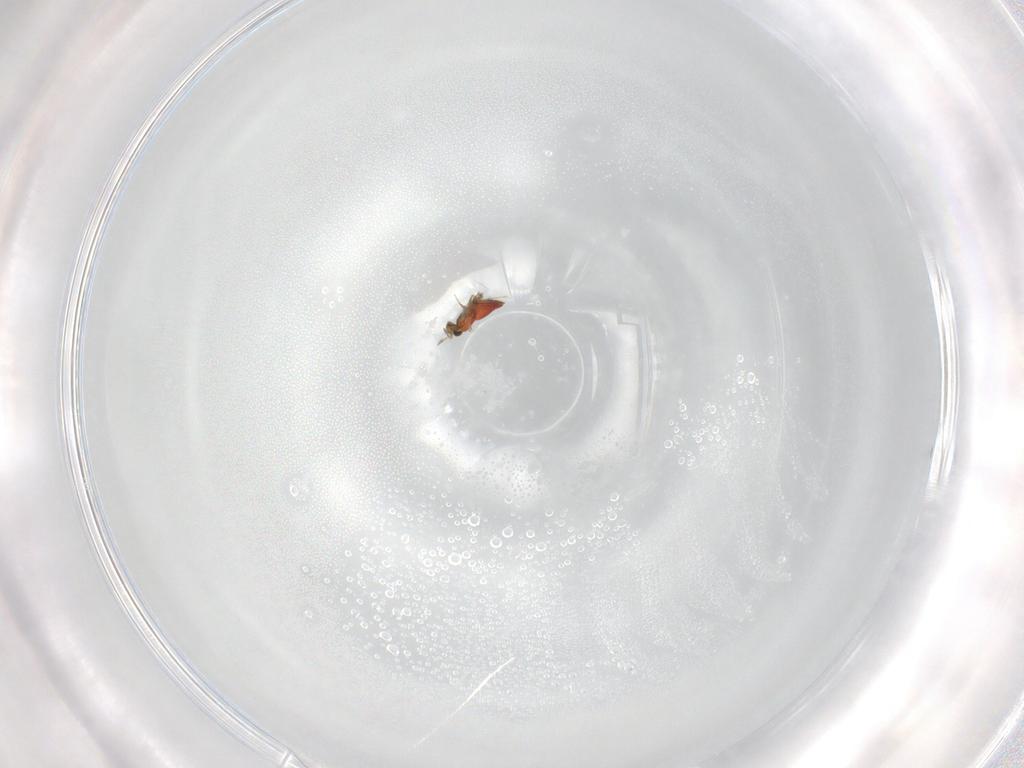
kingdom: Animalia
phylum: Arthropoda
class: Insecta
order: Hymenoptera
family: Trichogrammatidae
